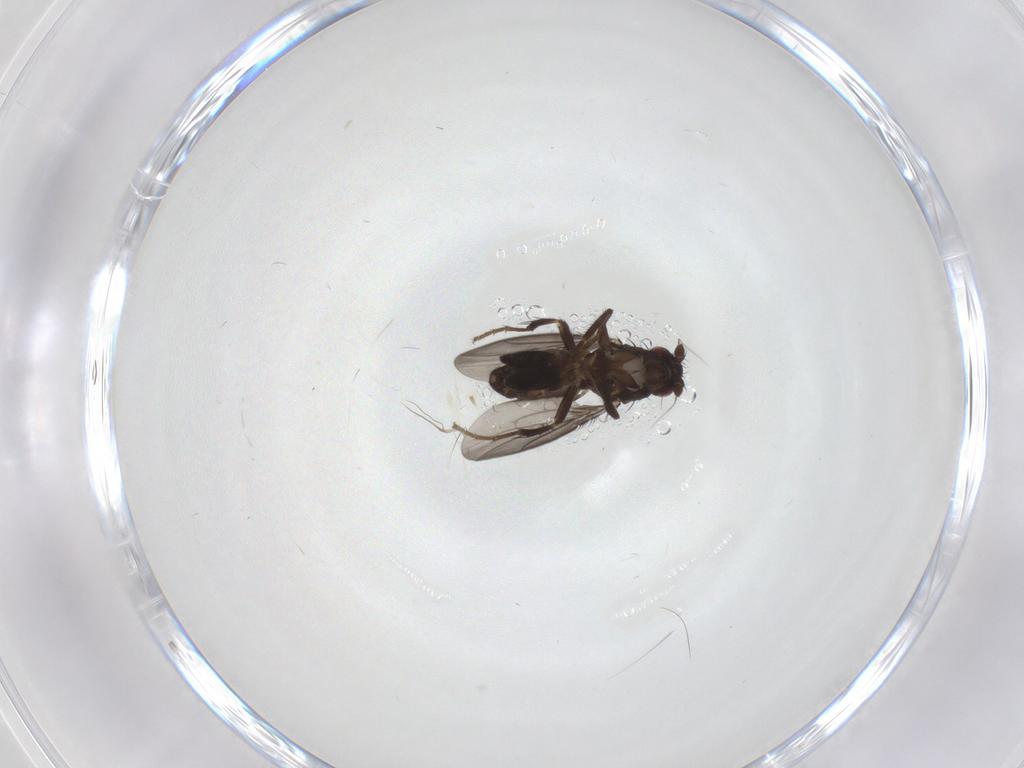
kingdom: Animalia
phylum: Arthropoda
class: Insecta
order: Diptera
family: Sphaeroceridae
